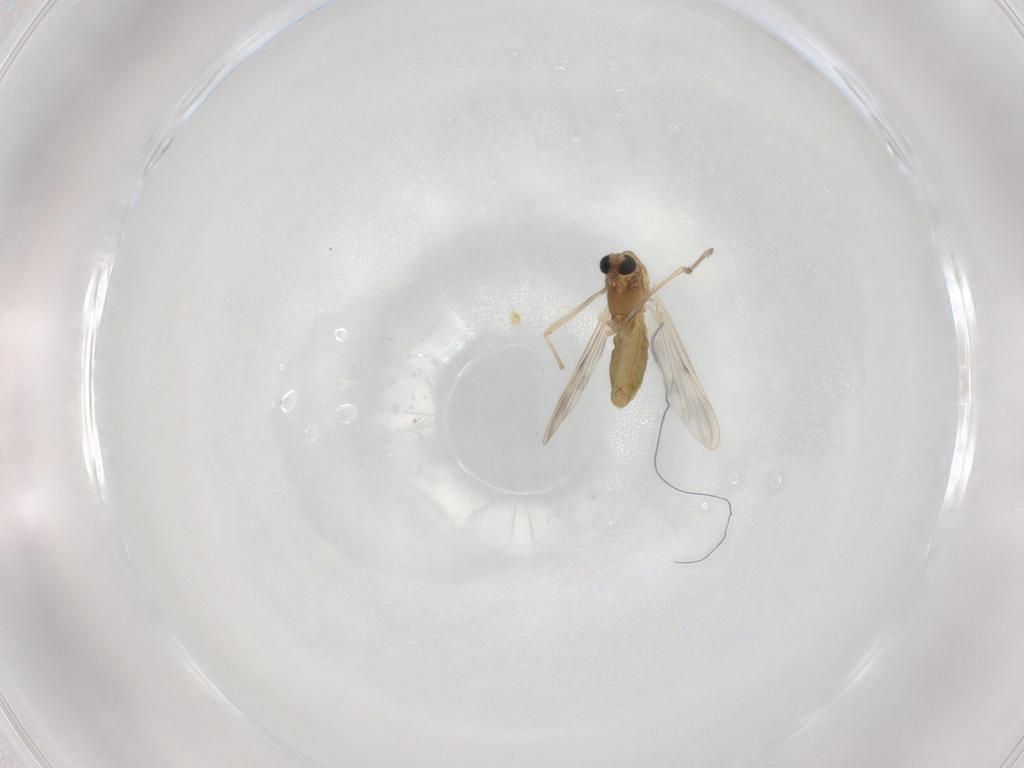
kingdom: Animalia
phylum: Arthropoda
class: Insecta
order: Diptera
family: Chironomidae
